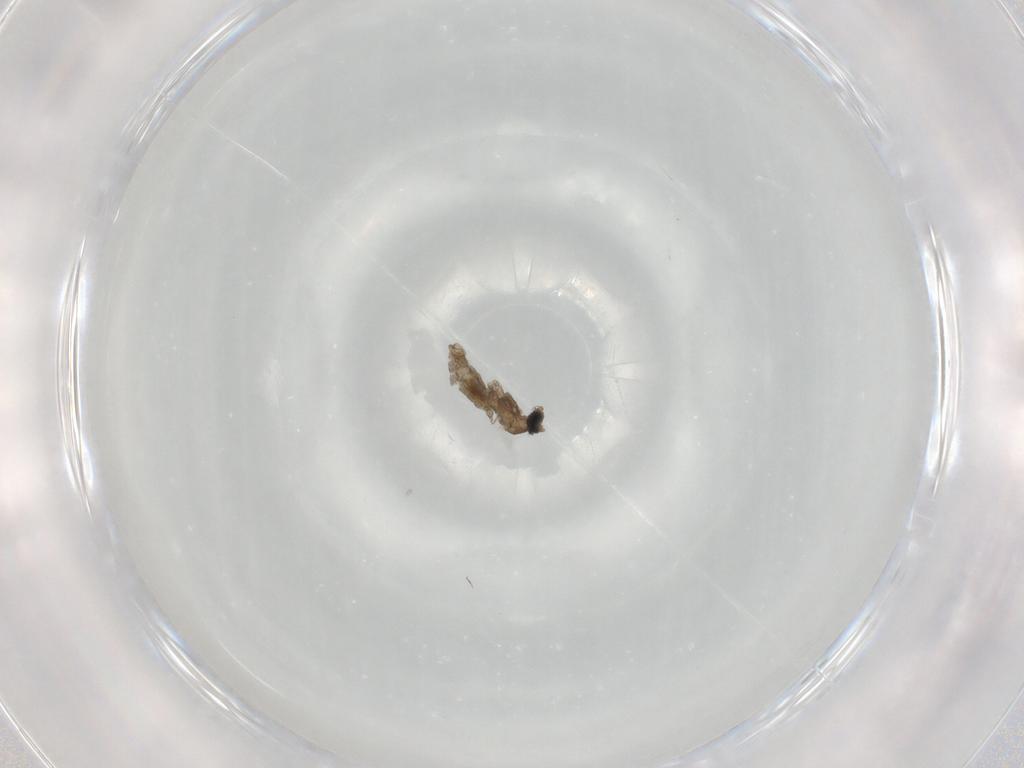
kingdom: Animalia
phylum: Arthropoda
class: Insecta
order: Diptera
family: Cecidomyiidae
